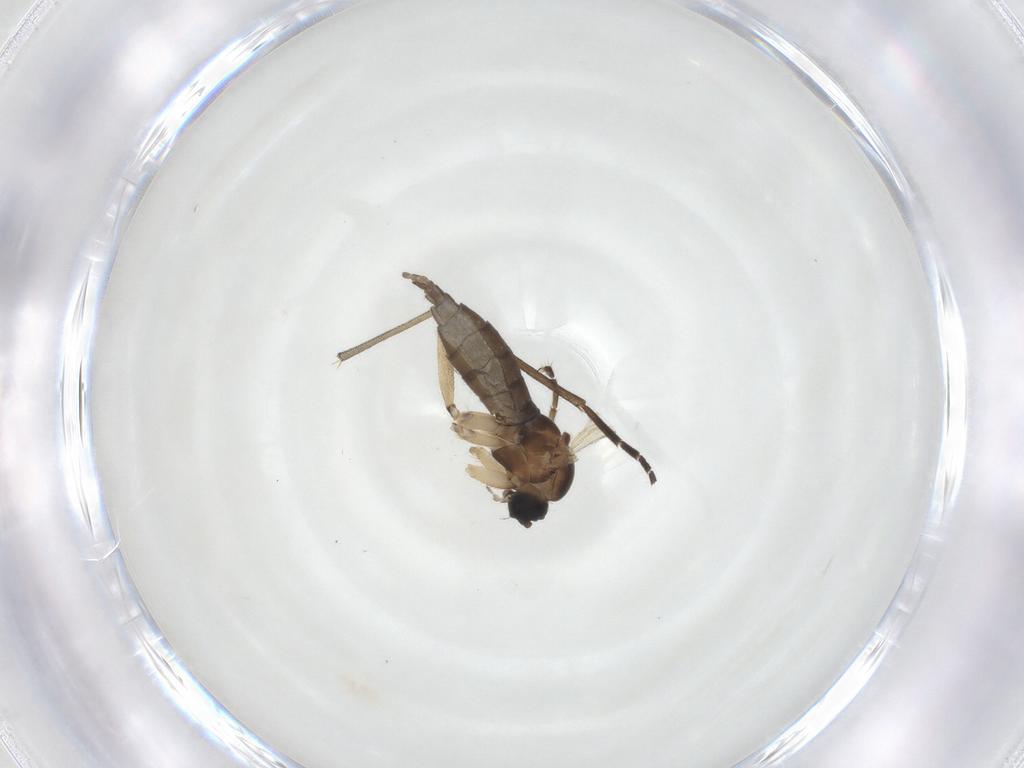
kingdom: Animalia
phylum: Arthropoda
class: Insecta
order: Diptera
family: Sciaridae
